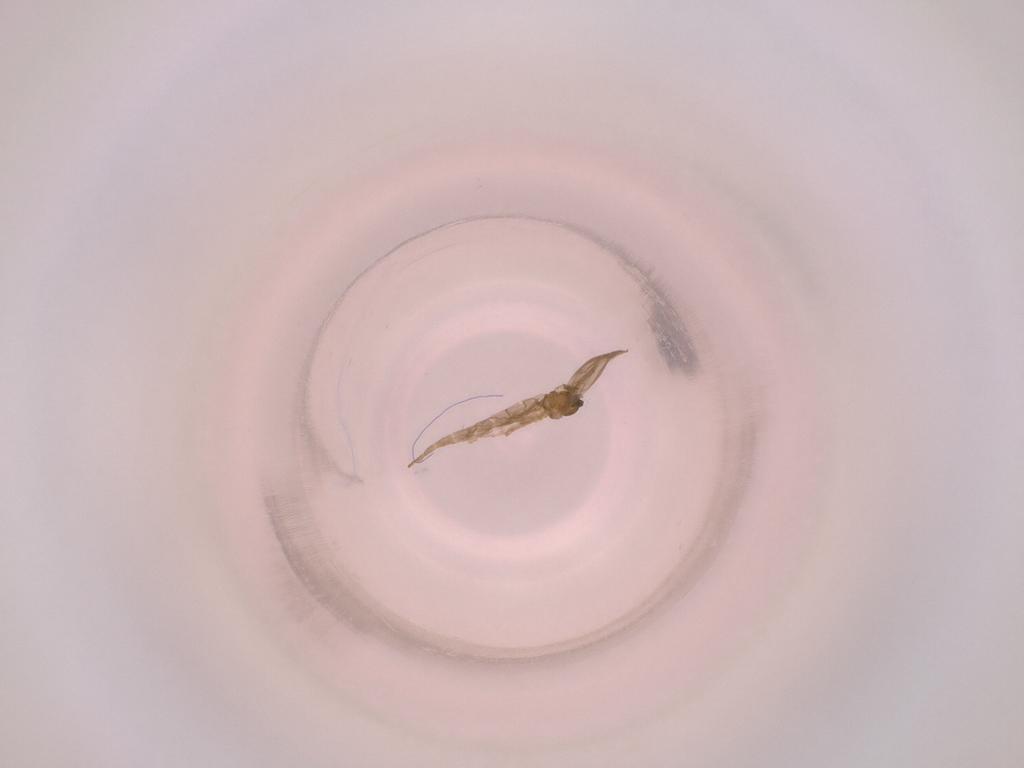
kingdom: Animalia
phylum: Arthropoda
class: Insecta
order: Diptera
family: Cecidomyiidae
